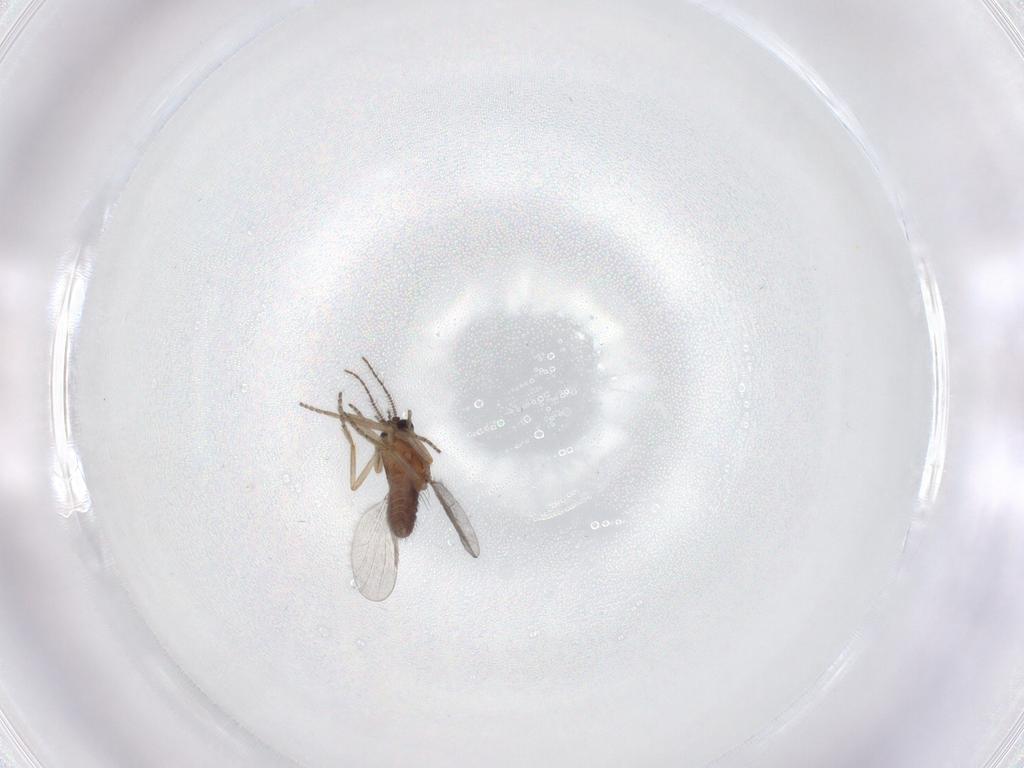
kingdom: Animalia
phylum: Arthropoda
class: Insecta
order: Diptera
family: Ceratopogonidae
